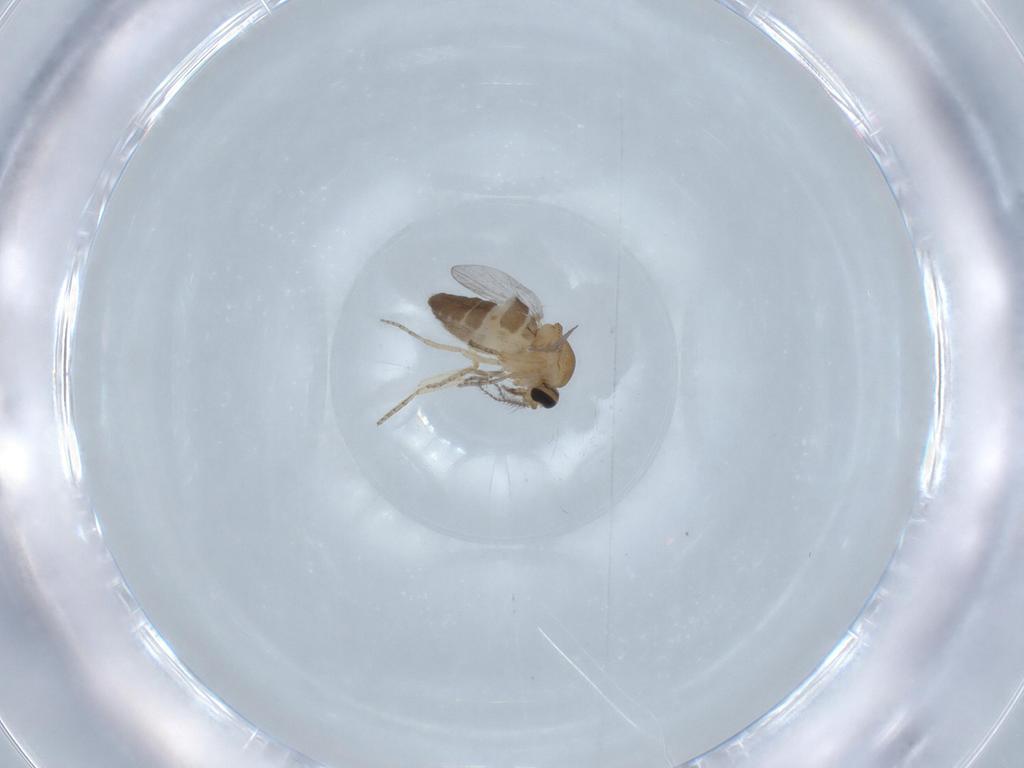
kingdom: Animalia
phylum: Arthropoda
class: Insecta
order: Diptera
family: Ceratopogonidae
